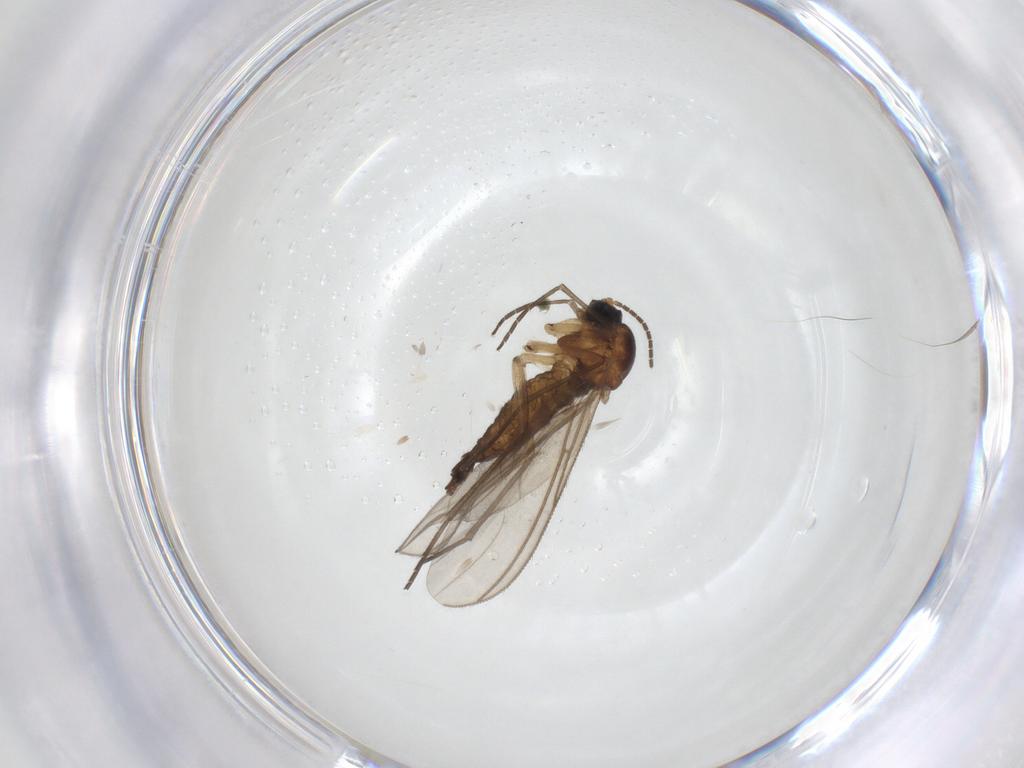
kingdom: Animalia
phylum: Arthropoda
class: Insecta
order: Diptera
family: Sciaridae
